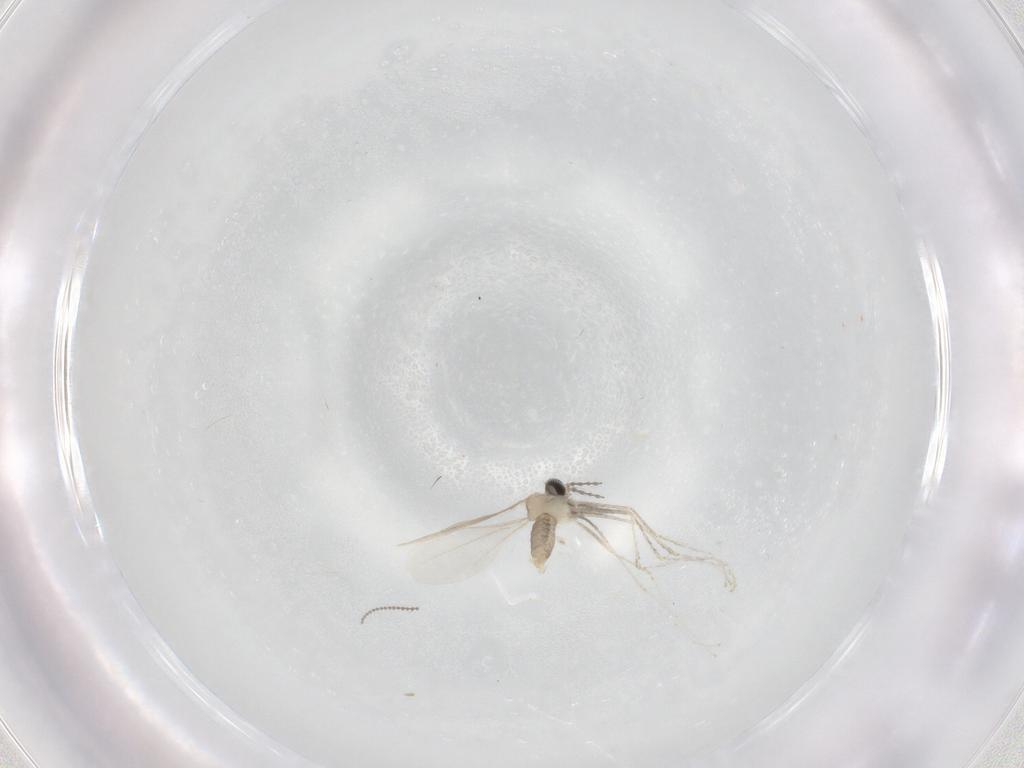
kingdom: Animalia
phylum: Arthropoda
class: Insecta
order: Diptera
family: Cecidomyiidae
